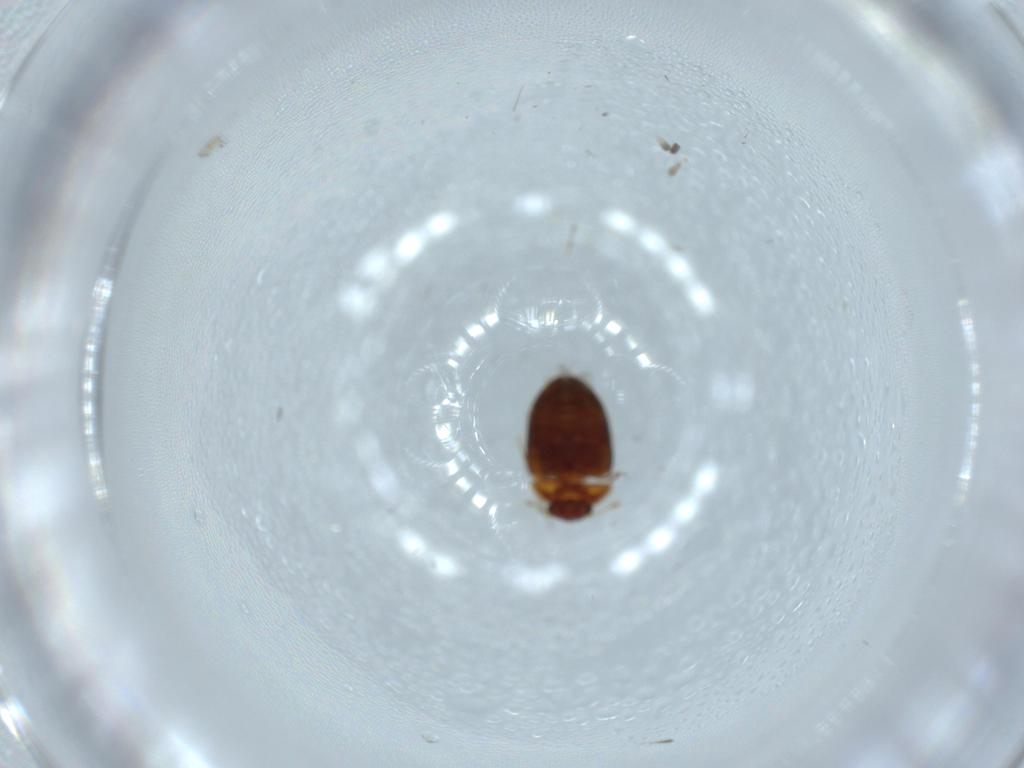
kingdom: Animalia
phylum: Arthropoda
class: Insecta
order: Coleoptera
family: Clambidae
